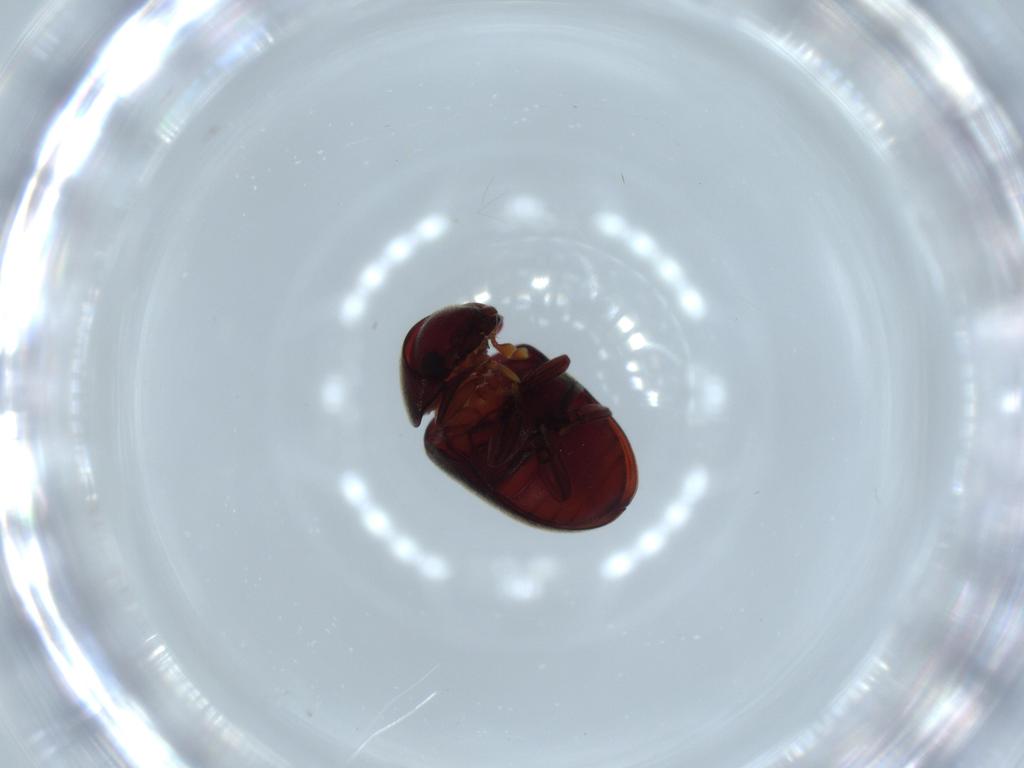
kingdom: Animalia
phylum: Arthropoda
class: Insecta
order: Coleoptera
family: Ptinidae
